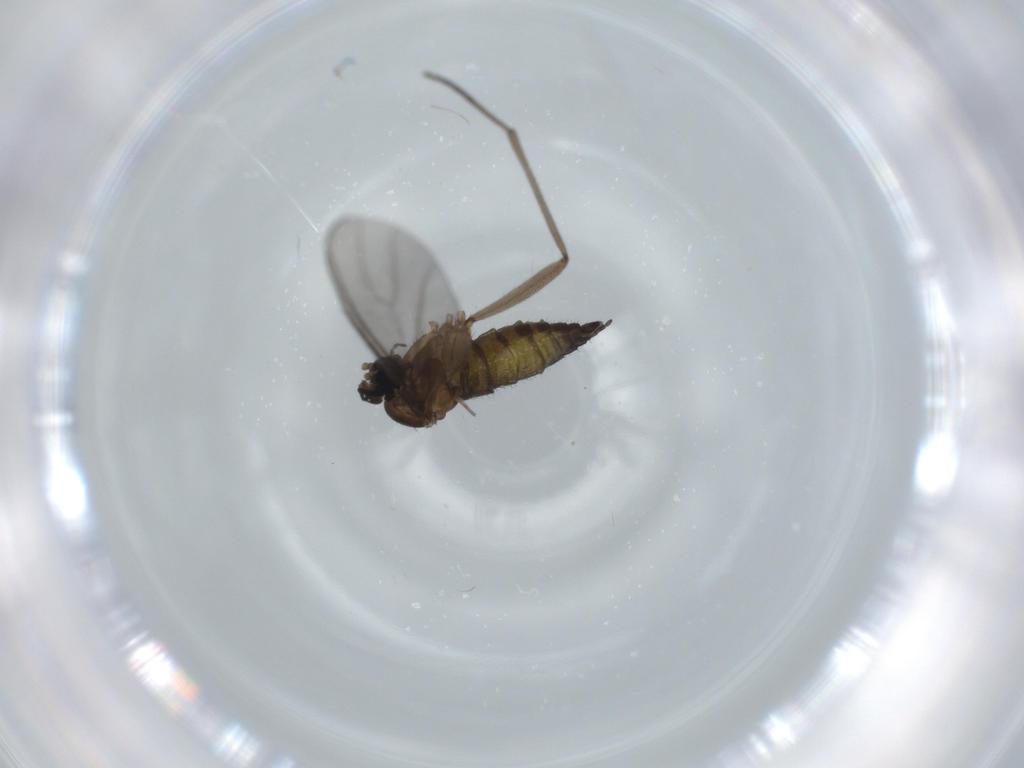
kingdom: Animalia
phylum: Arthropoda
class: Insecta
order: Diptera
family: Sciaridae
